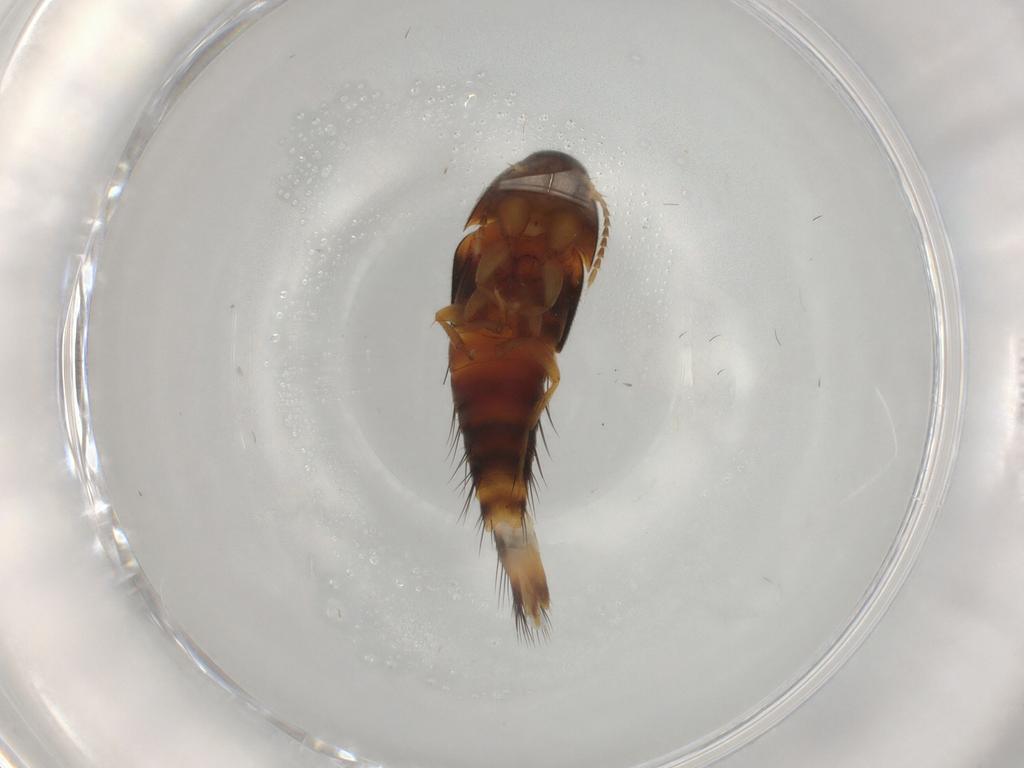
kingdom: Animalia
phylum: Arthropoda
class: Insecta
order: Coleoptera
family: Staphylinidae
